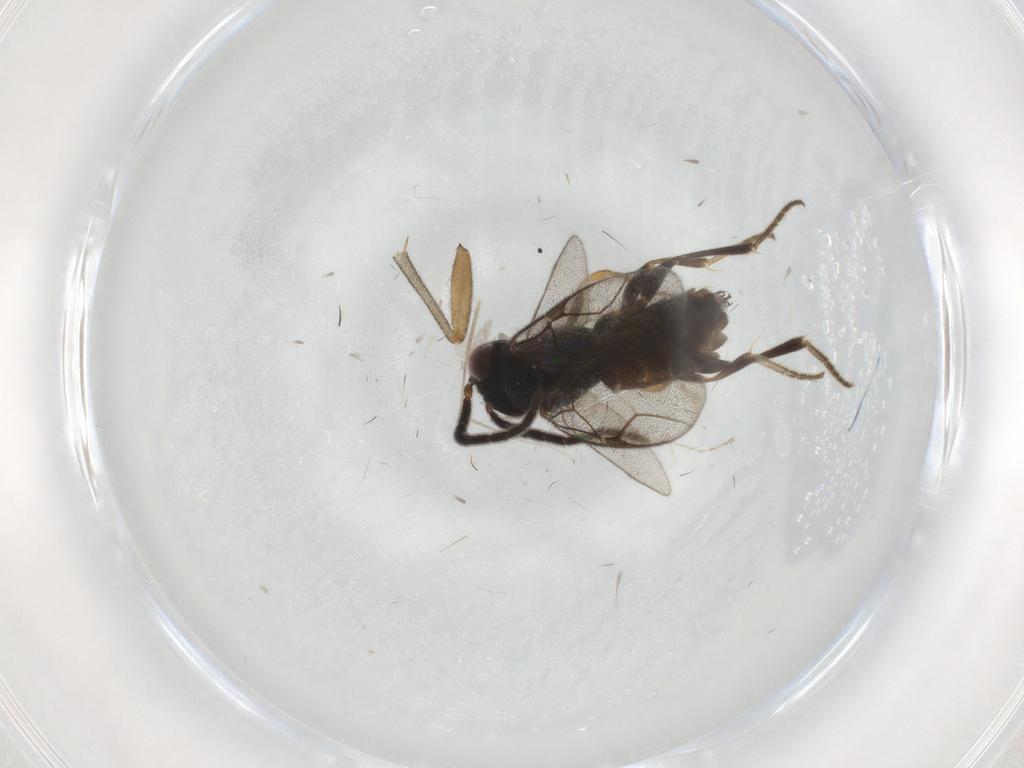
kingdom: Animalia
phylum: Arthropoda
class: Insecta
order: Hymenoptera
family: Dryinidae
